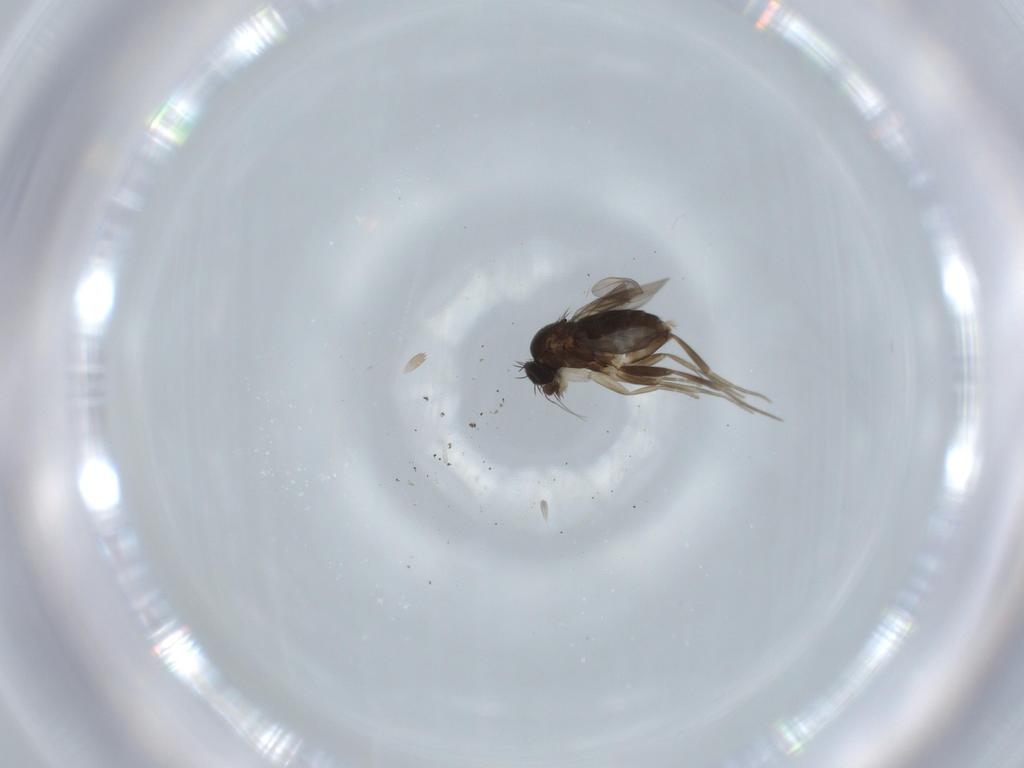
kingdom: Animalia
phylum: Arthropoda
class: Insecta
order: Diptera
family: Phoridae
